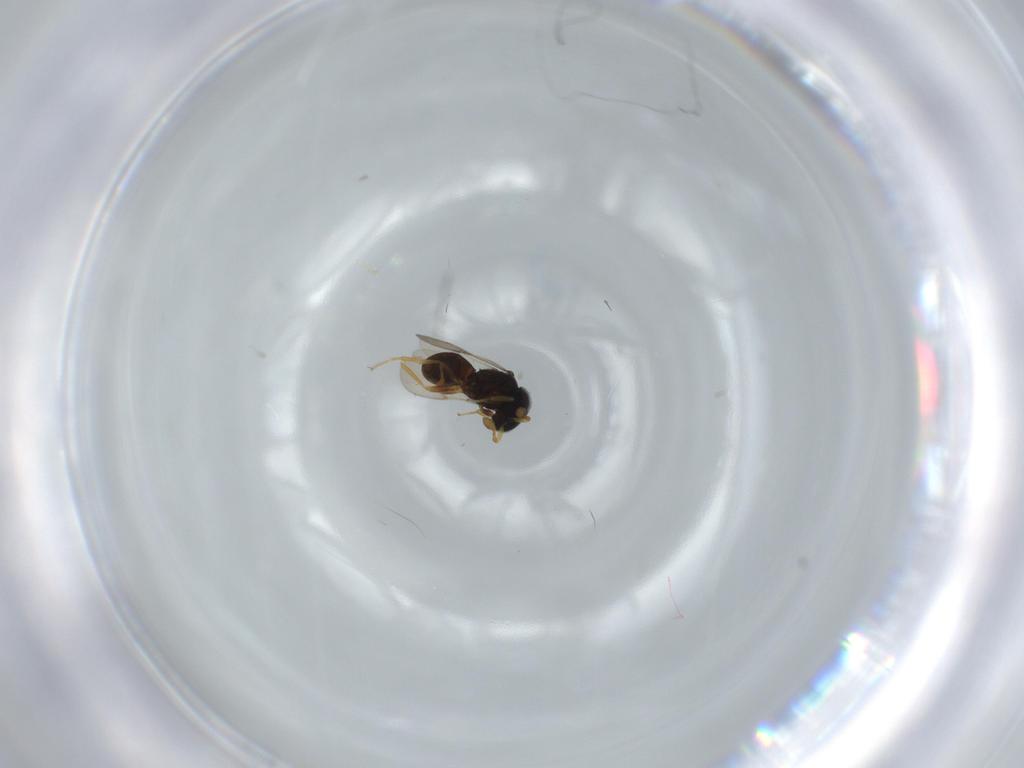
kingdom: Animalia
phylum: Arthropoda
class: Insecta
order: Hymenoptera
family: Scelionidae
